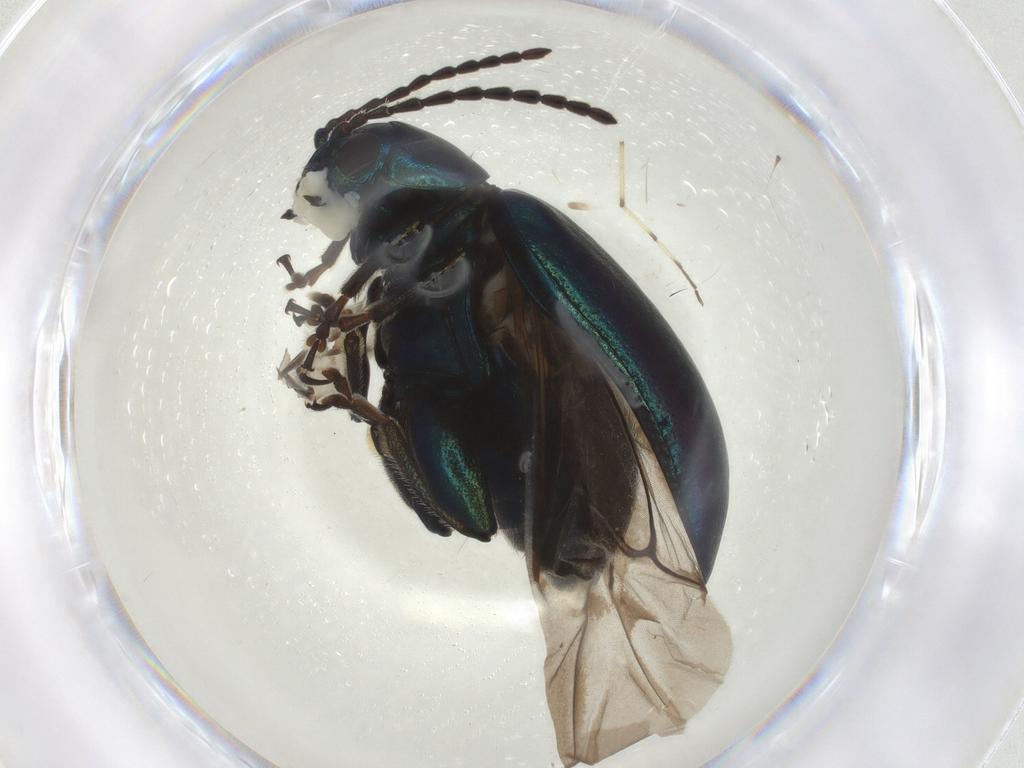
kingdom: Animalia
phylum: Arthropoda
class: Insecta
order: Coleoptera
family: Chrysomelidae
